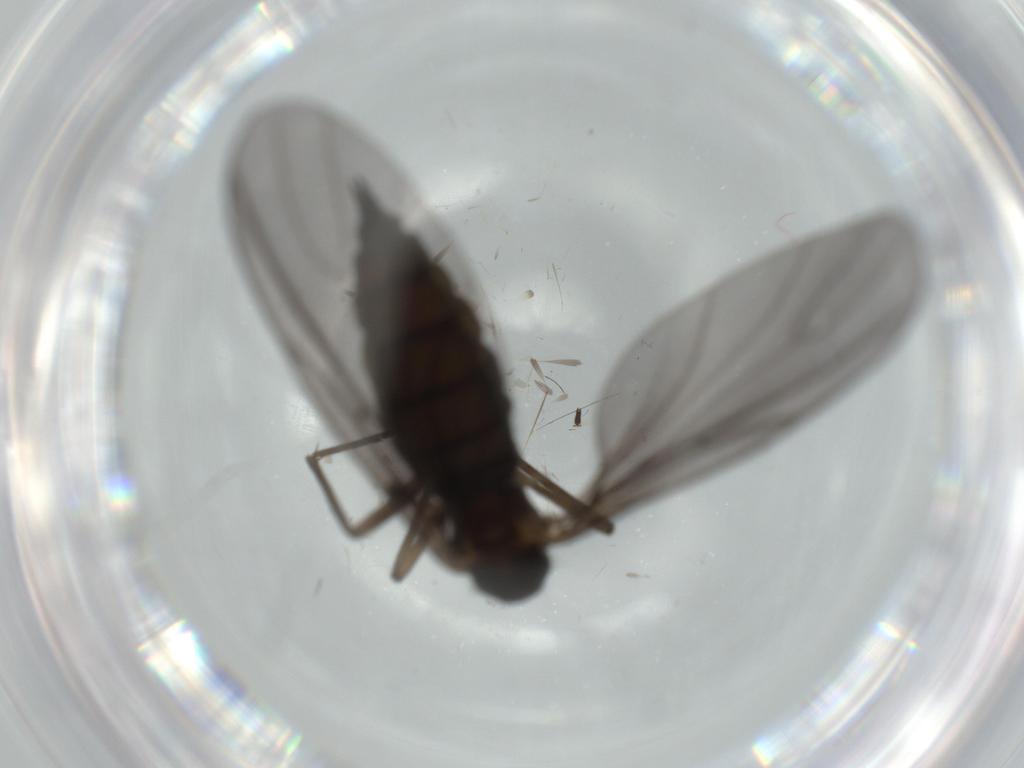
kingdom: Animalia
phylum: Arthropoda
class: Insecta
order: Diptera
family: Sciaridae
